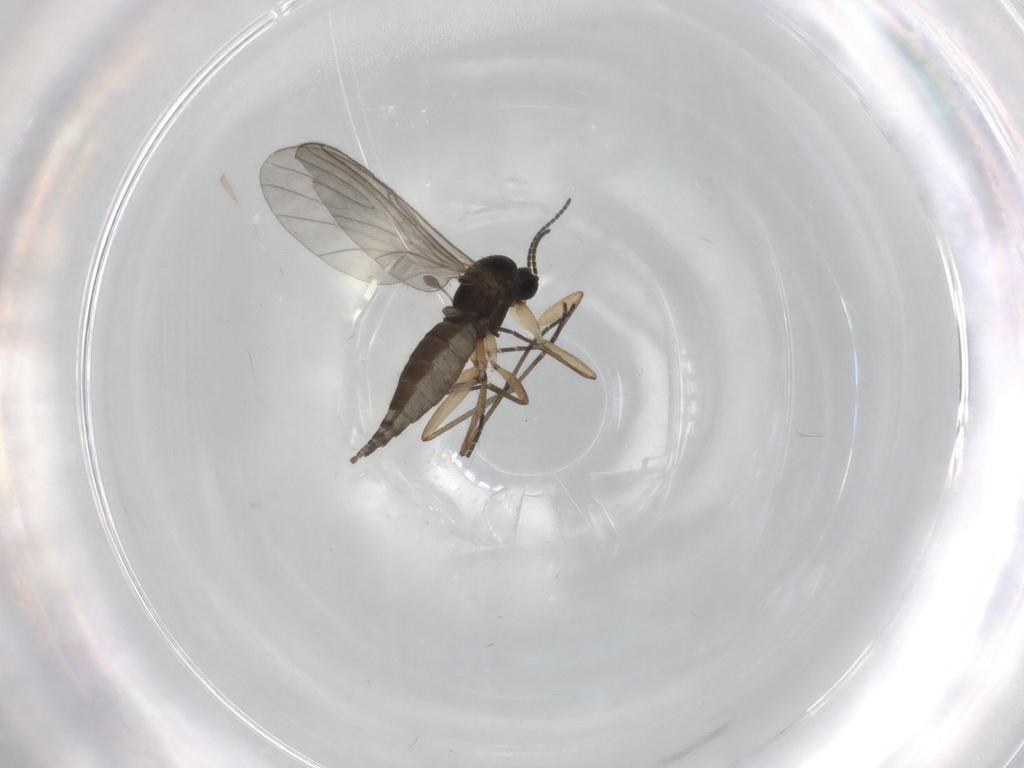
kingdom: Animalia
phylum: Arthropoda
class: Insecta
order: Diptera
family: Sciaridae
